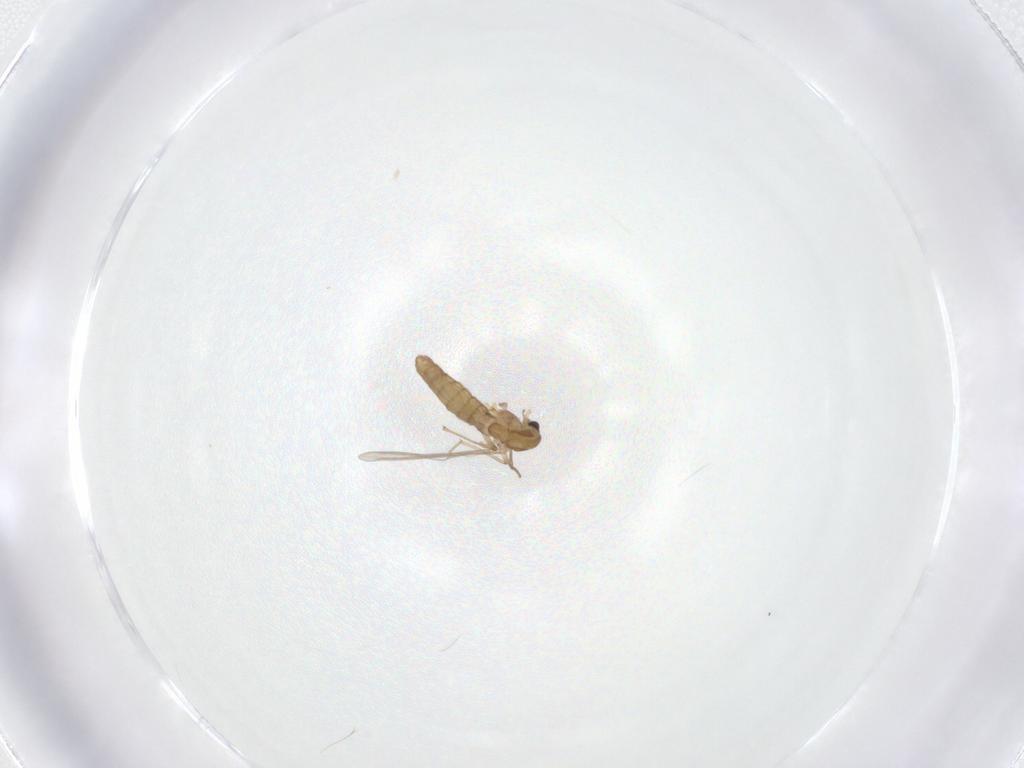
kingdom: Animalia
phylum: Arthropoda
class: Insecta
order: Diptera
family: Chironomidae
